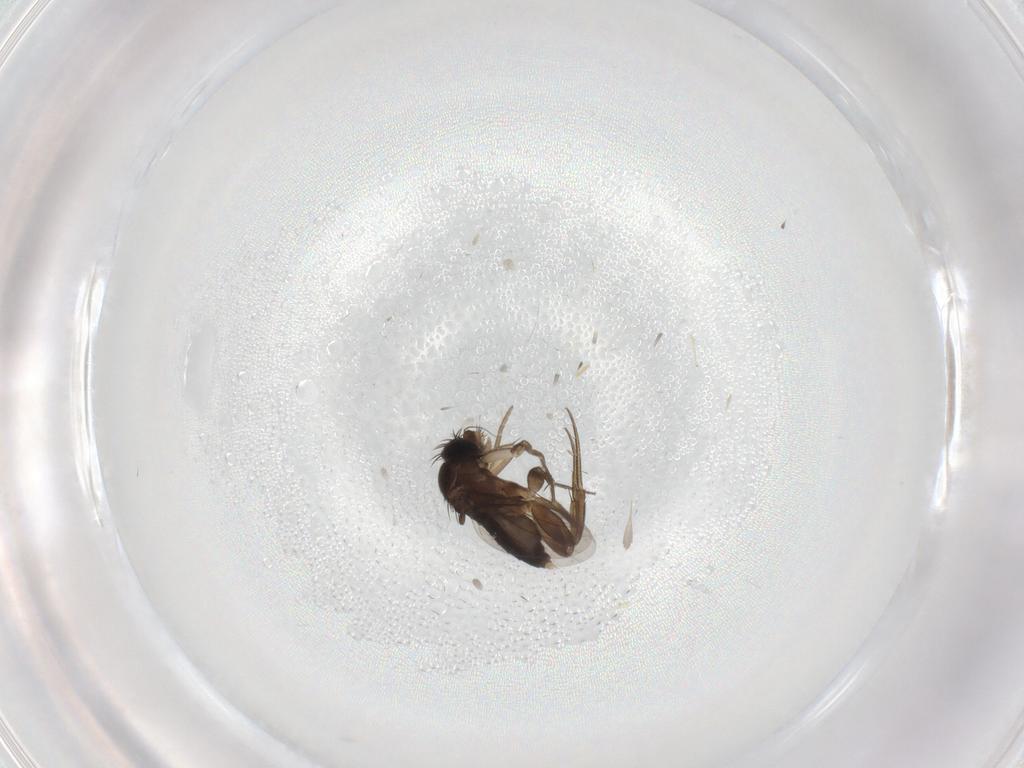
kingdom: Animalia
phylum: Arthropoda
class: Insecta
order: Diptera
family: Phoridae
